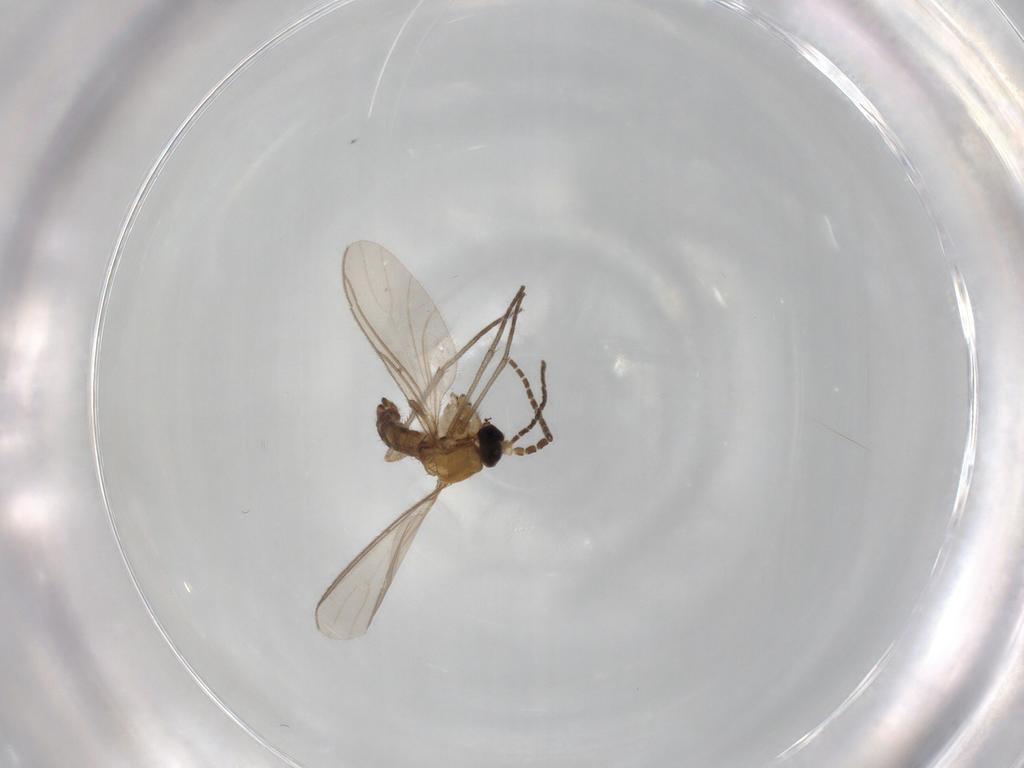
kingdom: Animalia
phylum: Arthropoda
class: Insecta
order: Diptera
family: Sciaridae
